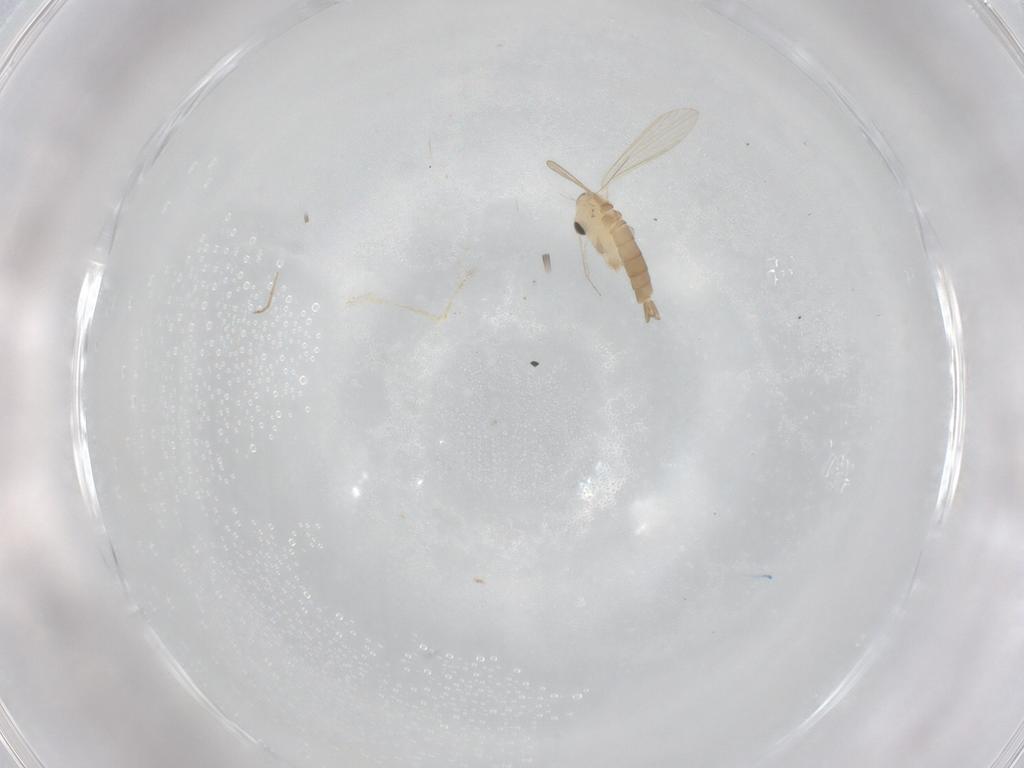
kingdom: Animalia
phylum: Arthropoda
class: Insecta
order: Diptera
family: Psychodidae
